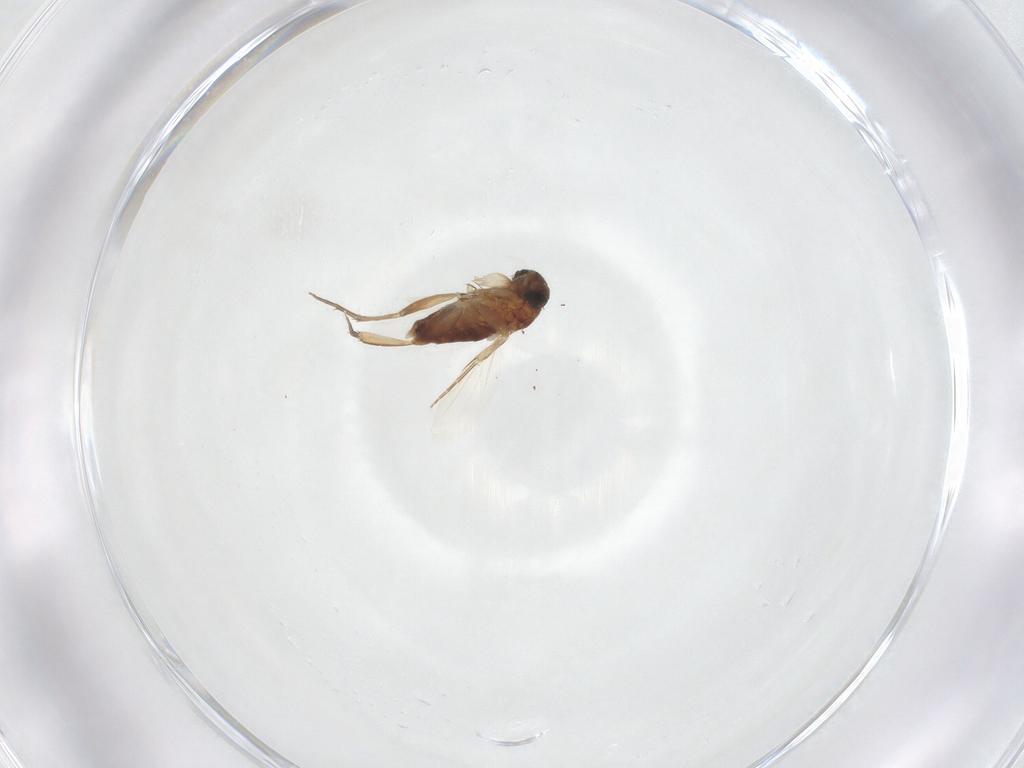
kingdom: Animalia
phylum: Arthropoda
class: Insecta
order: Diptera
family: Phoridae
